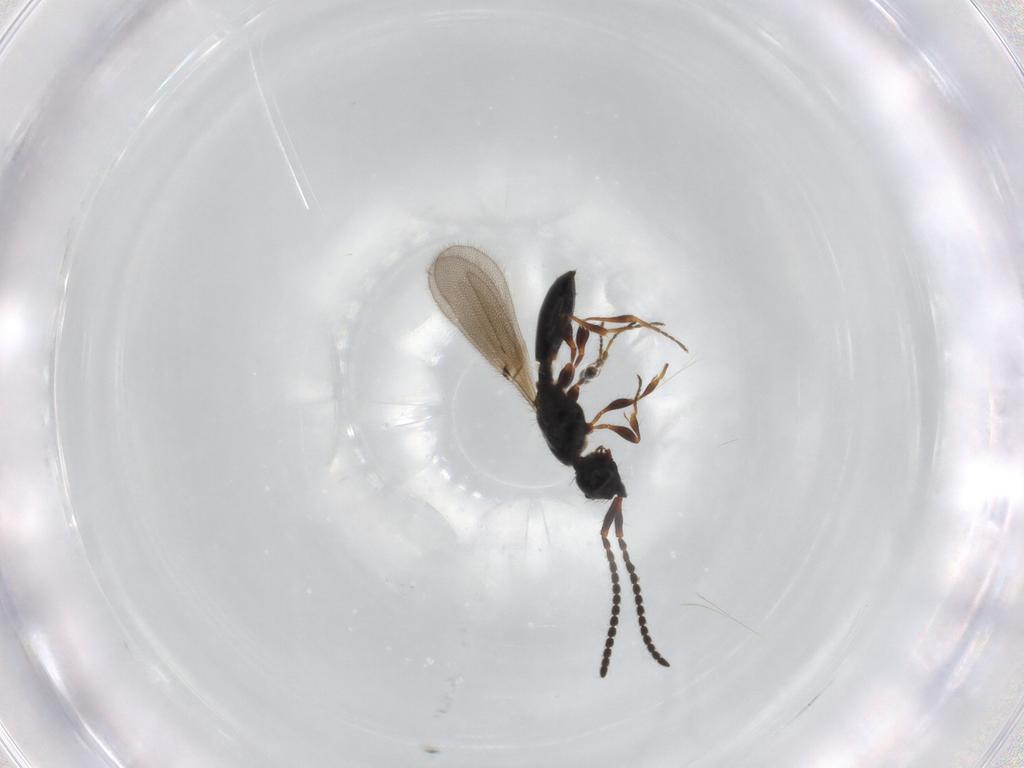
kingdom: Animalia
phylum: Arthropoda
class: Insecta
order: Hymenoptera
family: Diapriidae
